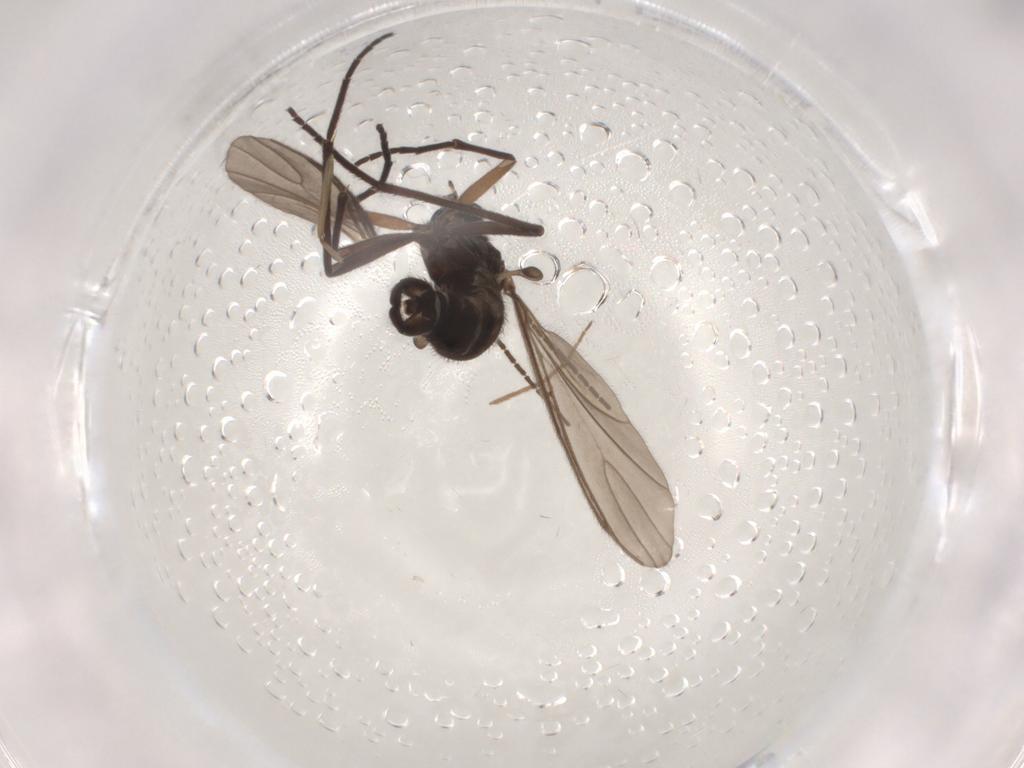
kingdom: Animalia
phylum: Arthropoda
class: Insecta
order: Diptera
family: Sciaridae
